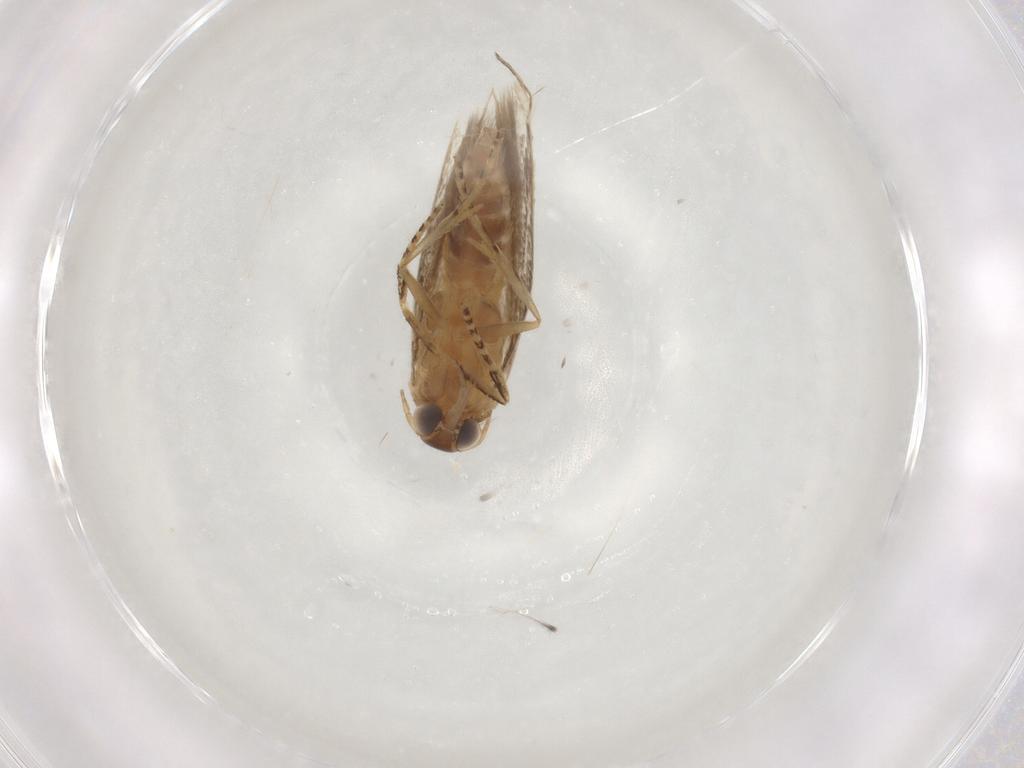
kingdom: Animalia
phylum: Arthropoda
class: Insecta
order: Lepidoptera
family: Cosmopterigidae
